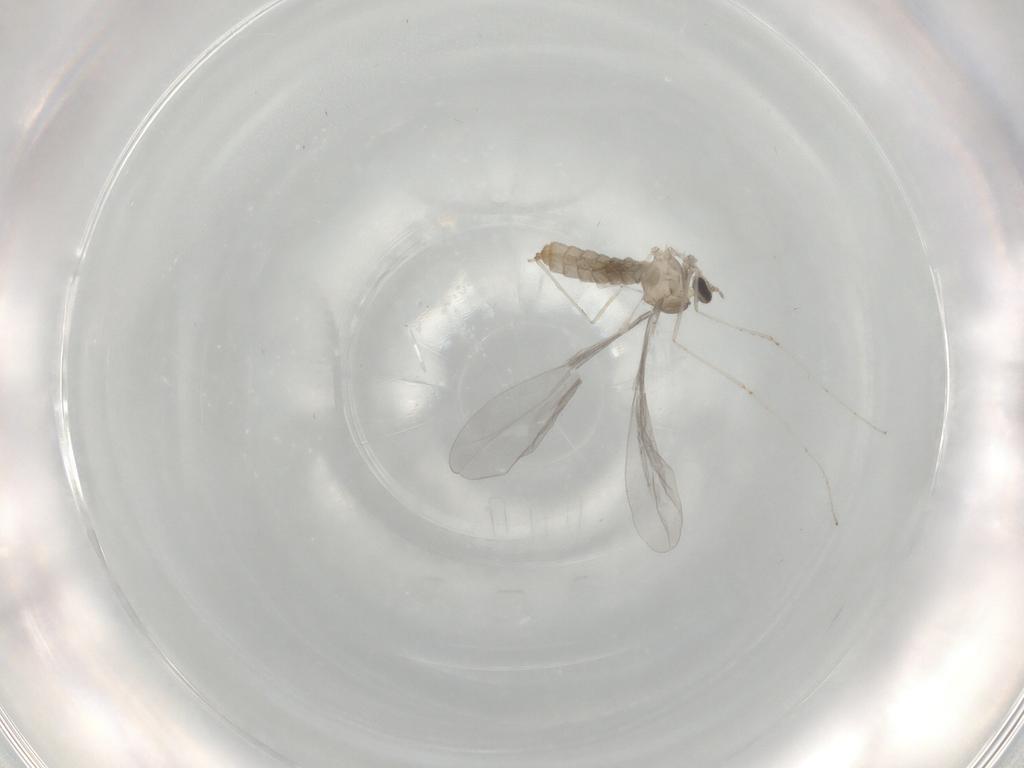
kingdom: Animalia
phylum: Arthropoda
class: Insecta
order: Diptera
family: Cecidomyiidae
